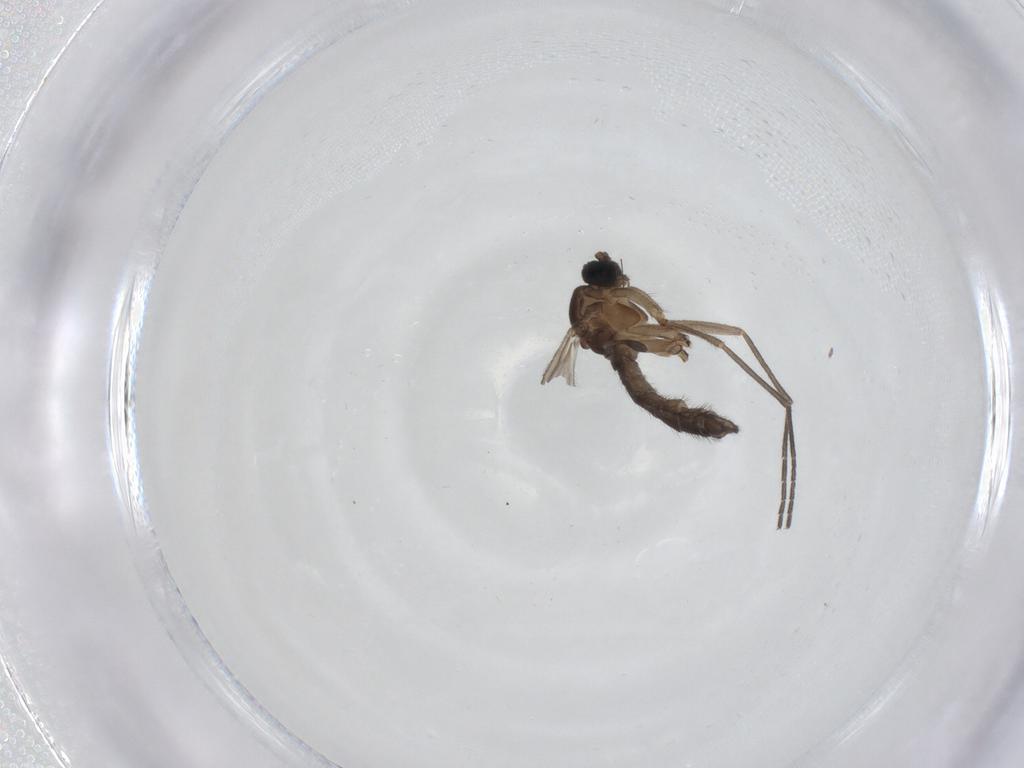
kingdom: Animalia
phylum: Arthropoda
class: Insecta
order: Diptera
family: Sciaridae
